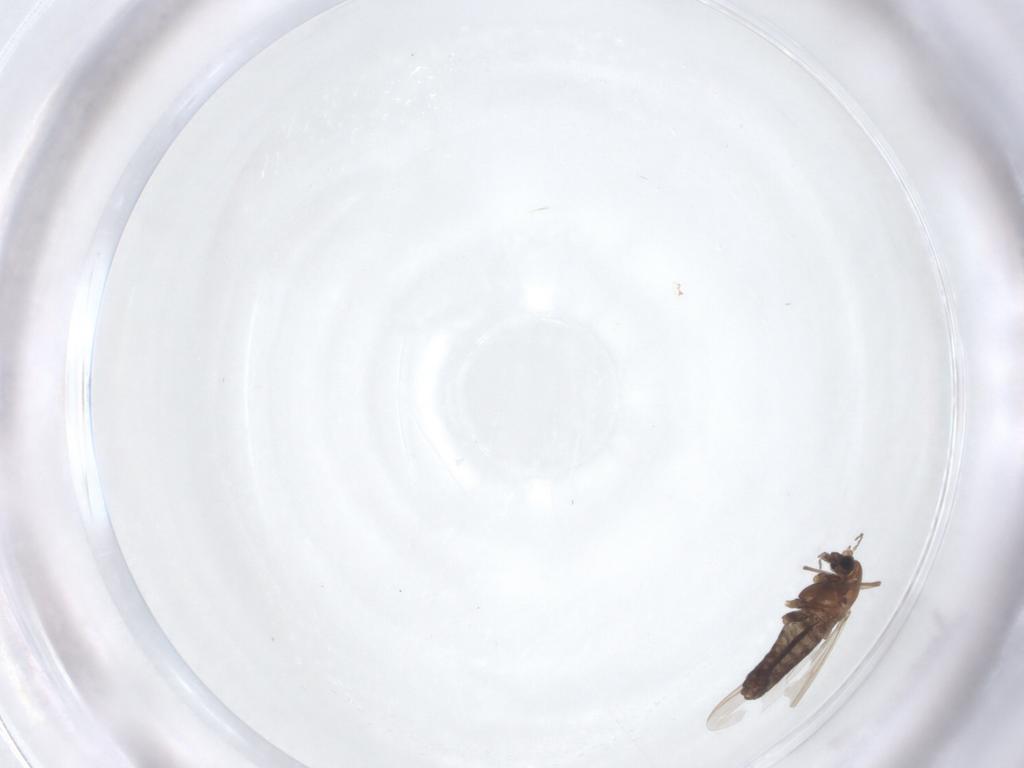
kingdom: Animalia
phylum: Arthropoda
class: Insecta
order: Diptera
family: Chironomidae
